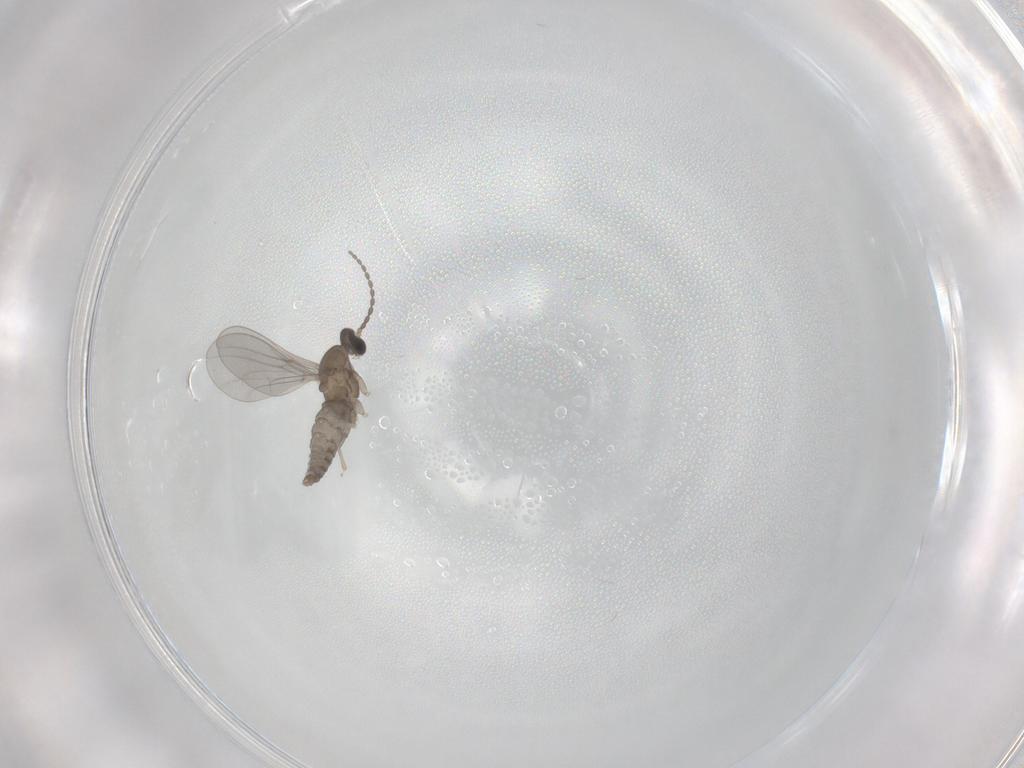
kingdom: Animalia
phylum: Arthropoda
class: Insecta
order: Diptera
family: Cecidomyiidae
